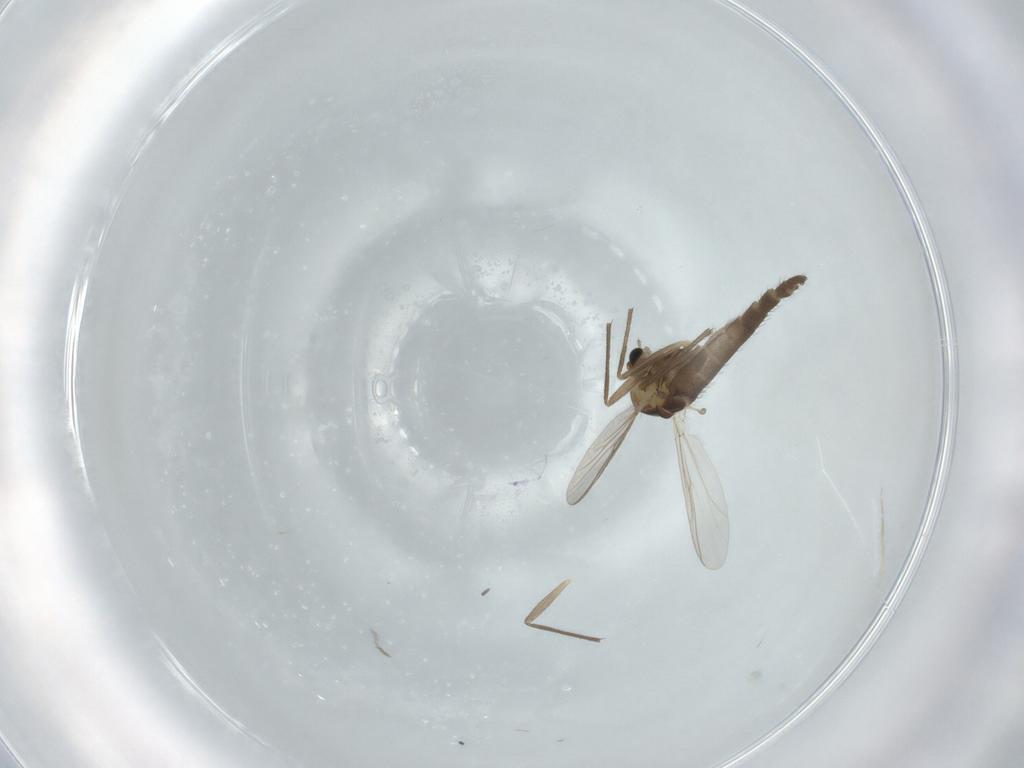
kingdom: Animalia
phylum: Arthropoda
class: Insecta
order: Diptera
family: Chironomidae
